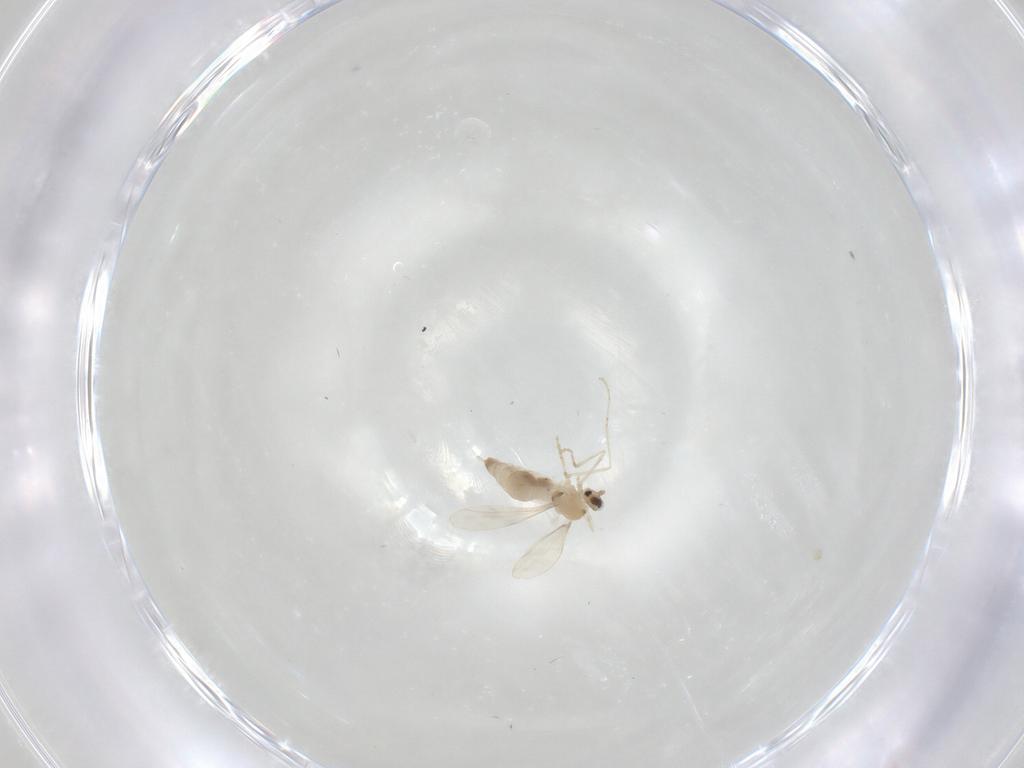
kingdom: Animalia
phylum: Arthropoda
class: Insecta
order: Diptera
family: Cecidomyiidae
